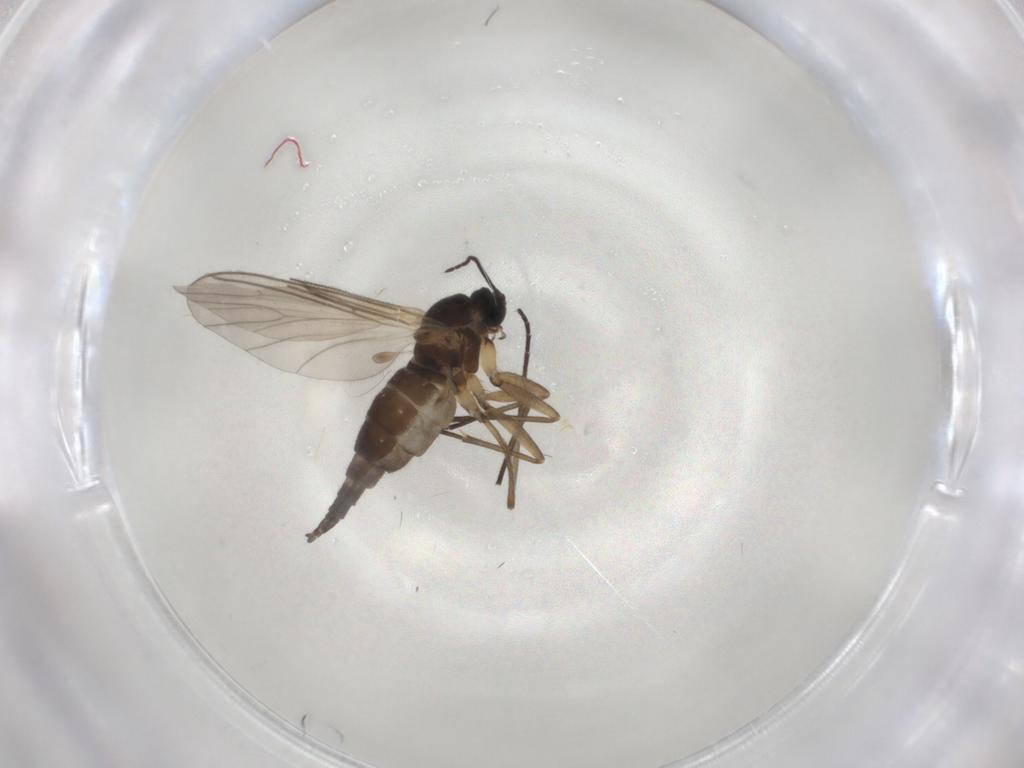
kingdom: Animalia
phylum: Arthropoda
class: Insecta
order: Diptera
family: Sciaridae
